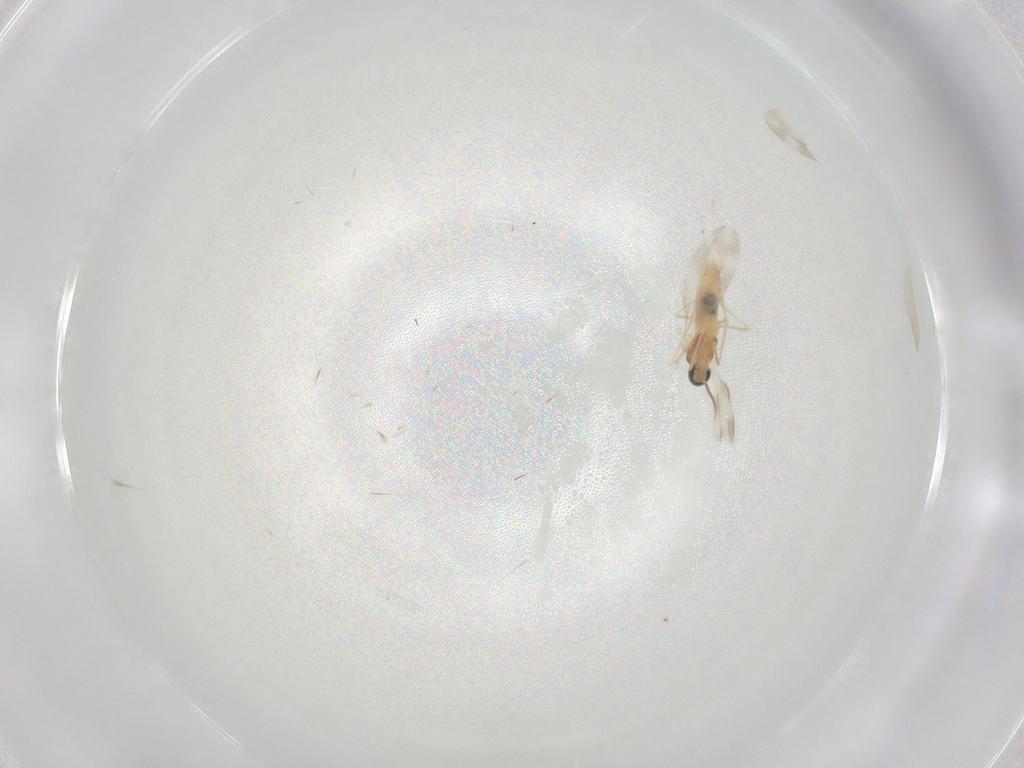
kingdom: Animalia
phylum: Arthropoda
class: Insecta
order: Diptera
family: Cecidomyiidae
